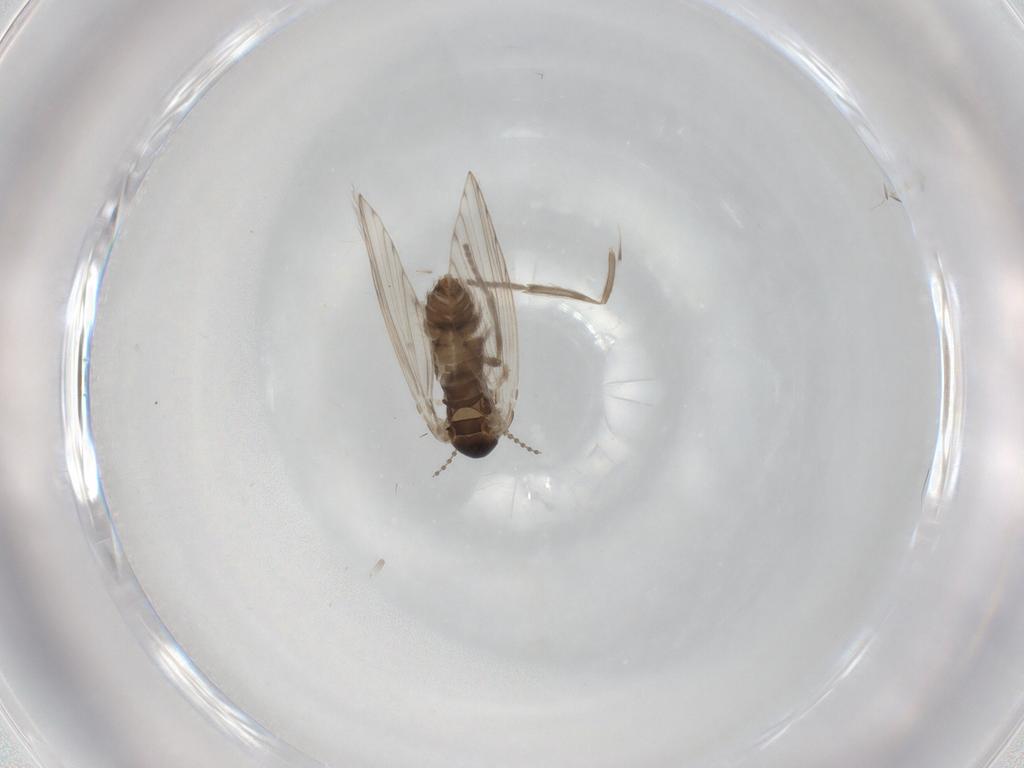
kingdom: Animalia
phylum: Arthropoda
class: Insecta
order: Diptera
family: Psychodidae
